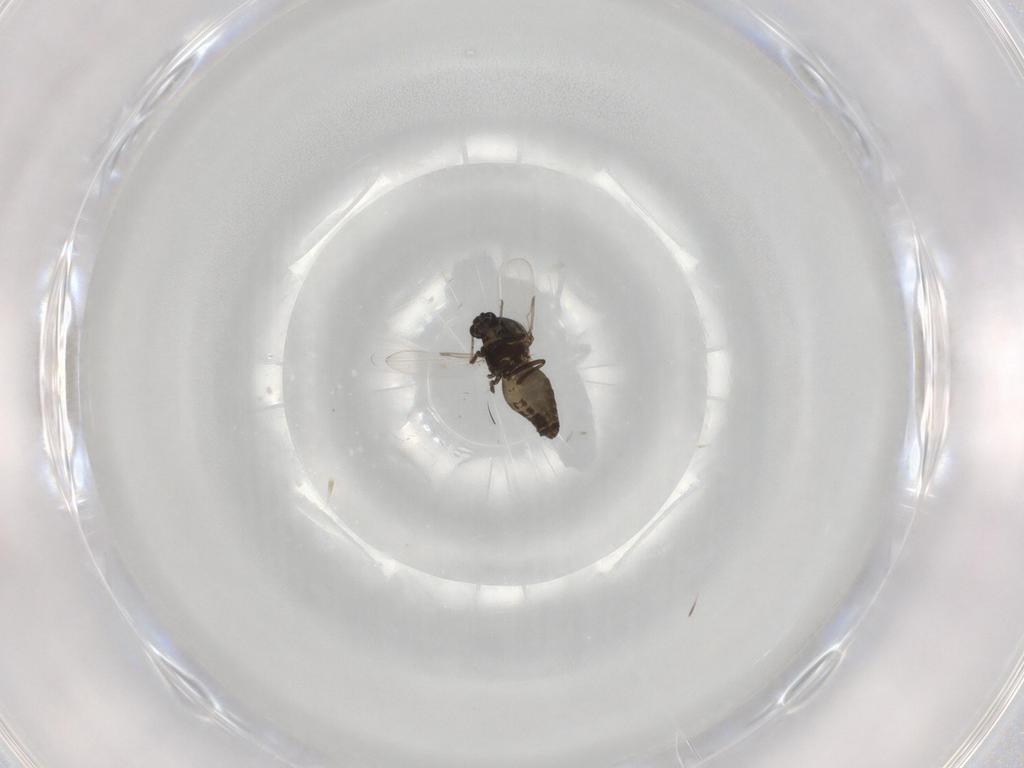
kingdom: Animalia
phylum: Arthropoda
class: Insecta
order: Diptera
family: Ceratopogonidae
